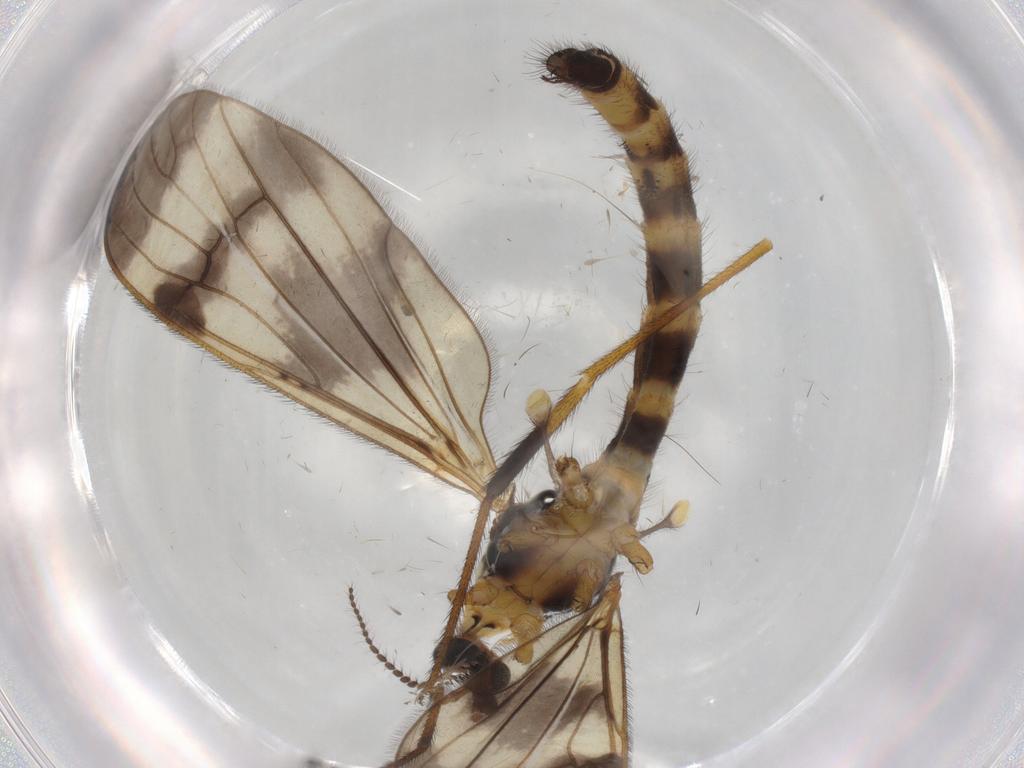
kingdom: Animalia
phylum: Arthropoda
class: Insecta
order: Diptera
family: Limoniidae
